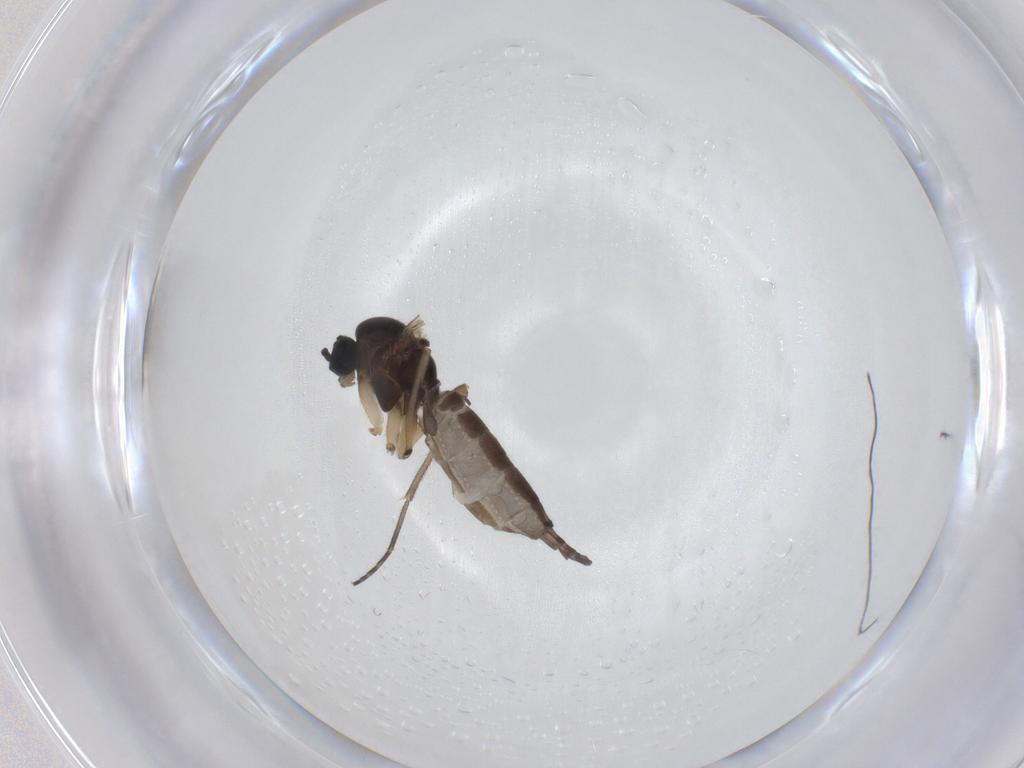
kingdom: Animalia
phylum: Arthropoda
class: Insecta
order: Diptera
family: Sciaridae
